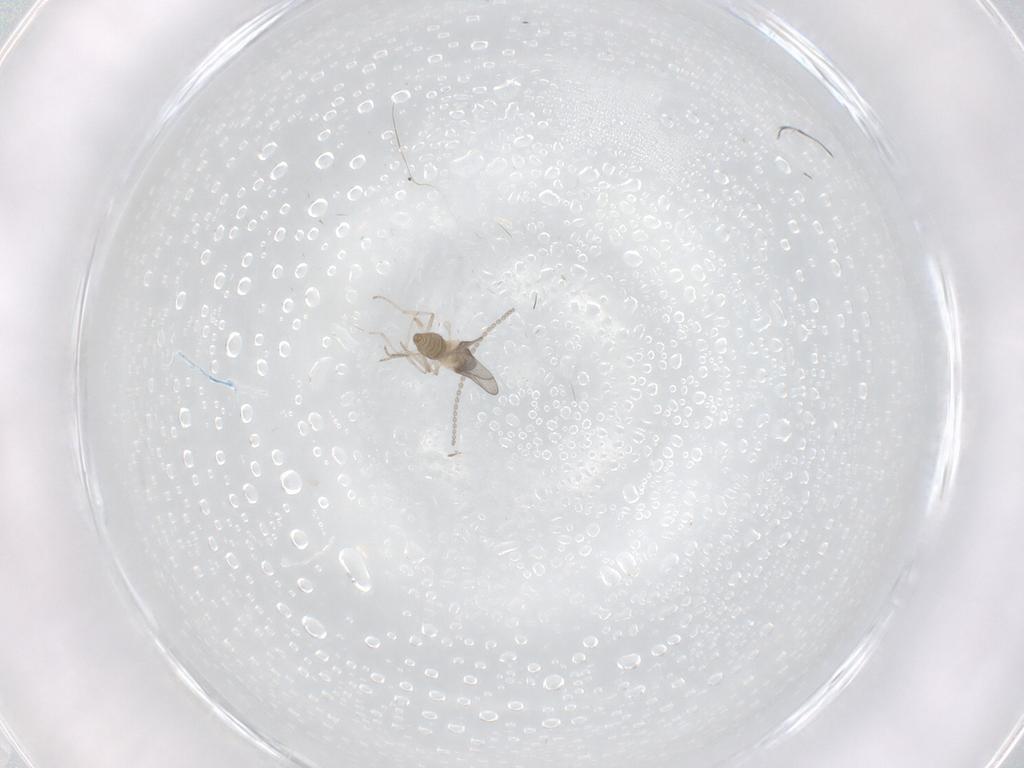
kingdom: Animalia
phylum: Arthropoda
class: Insecta
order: Diptera
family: Cecidomyiidae
